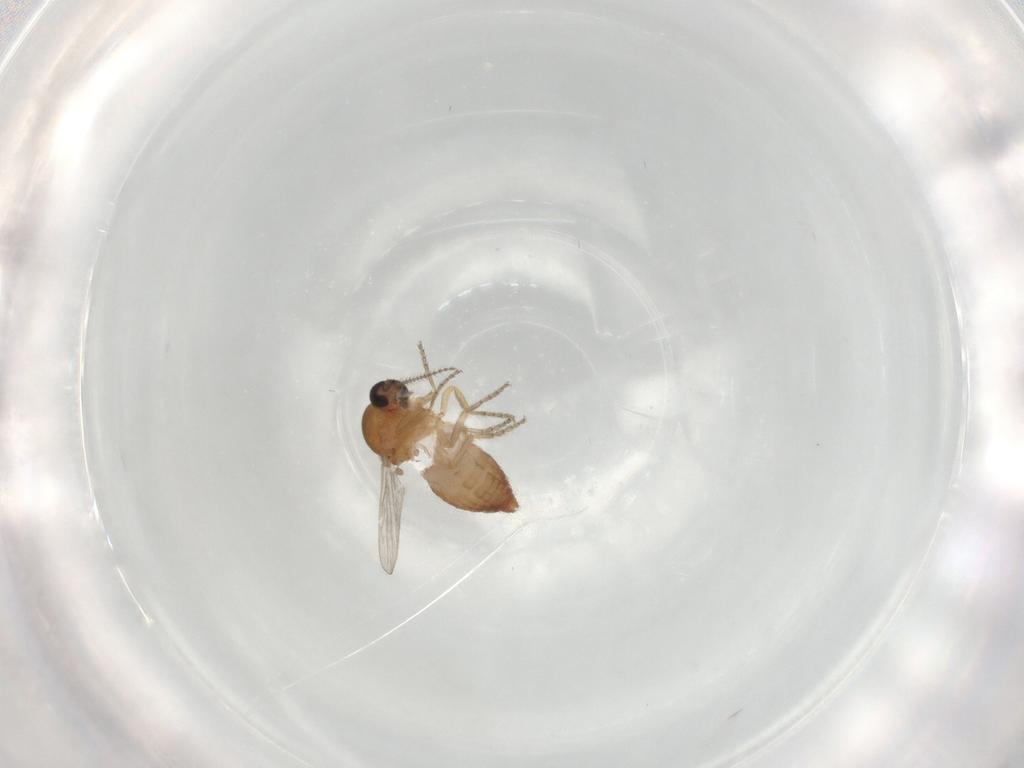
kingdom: Animalia
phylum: Arthropoda
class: Insecta
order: Diptera
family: Ceratopogonidae
